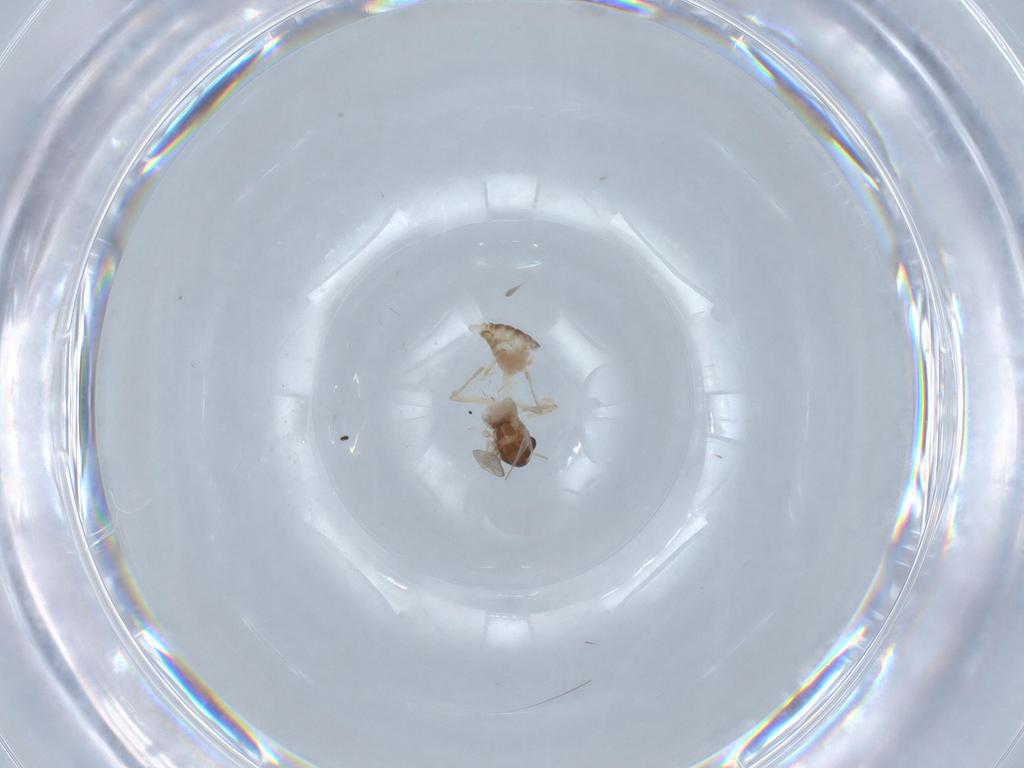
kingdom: Animalia
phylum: Arthropoda
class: Insecta
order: Diptera
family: Chironomidae
